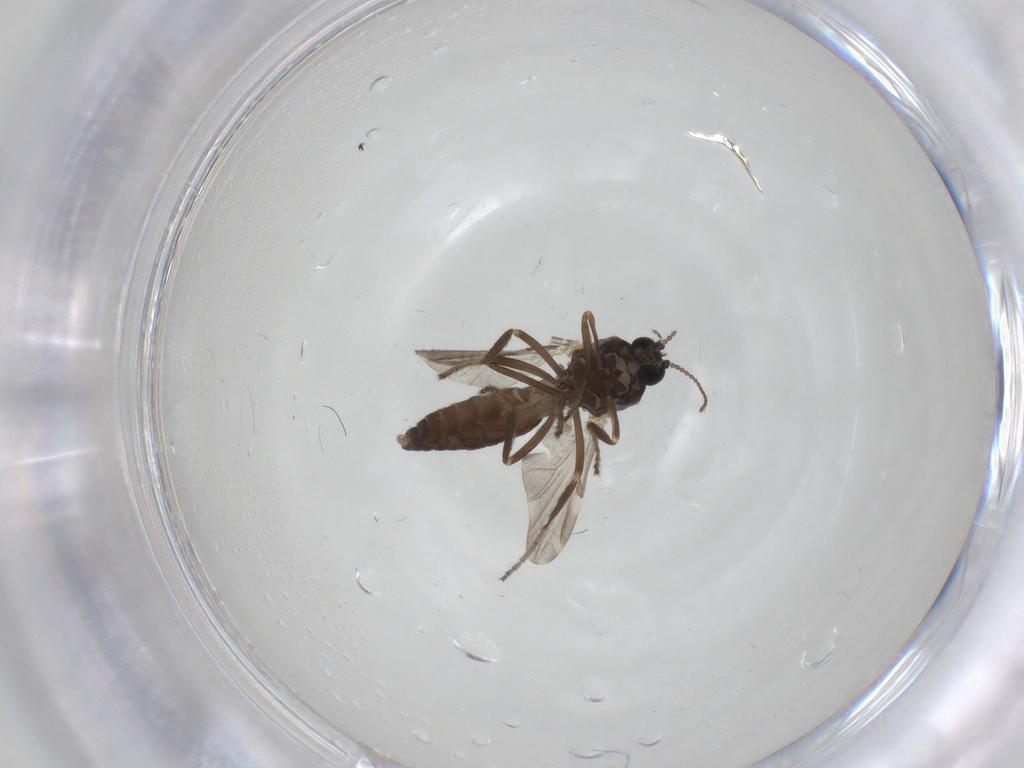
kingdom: Animalia
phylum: Arthropoda
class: Insecta
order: Diptera
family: Ceratopogonidae
